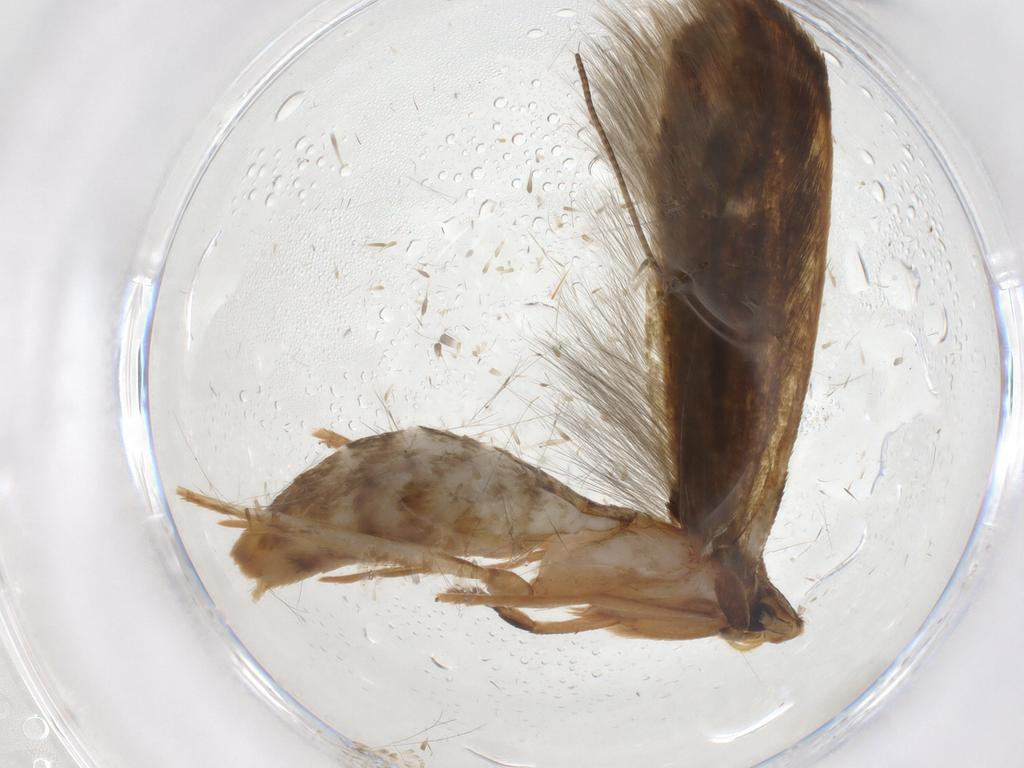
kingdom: Animalia
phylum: Arthropoda
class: Insecta
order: Lepidoptera
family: Tineidae
